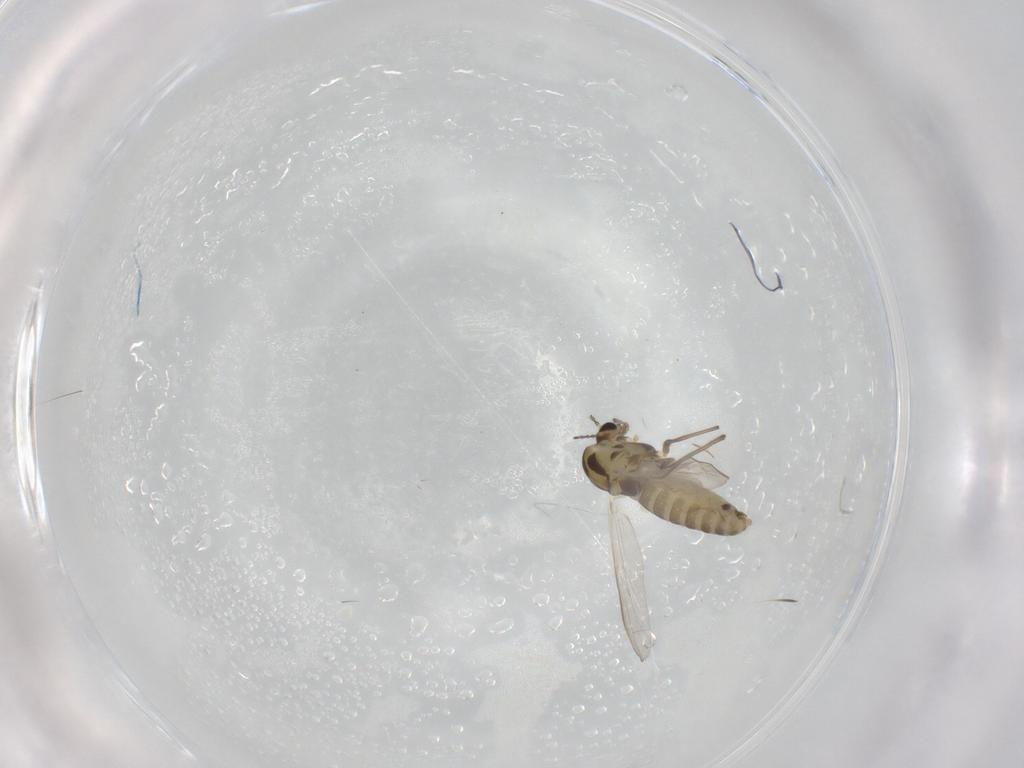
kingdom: Animalia
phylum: Arthropoda
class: Insecta
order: Diptera
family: Chironomidae
